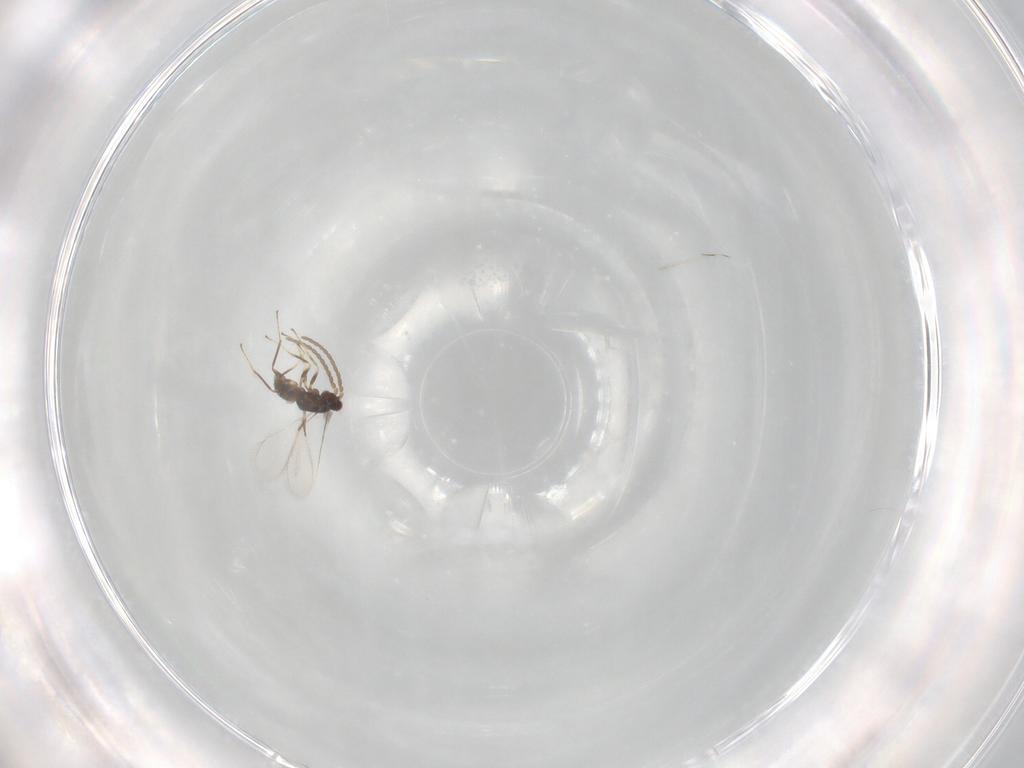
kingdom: Animalia
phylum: Arthropoda
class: Insecta
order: Hymenoptera
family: Mymaridae
